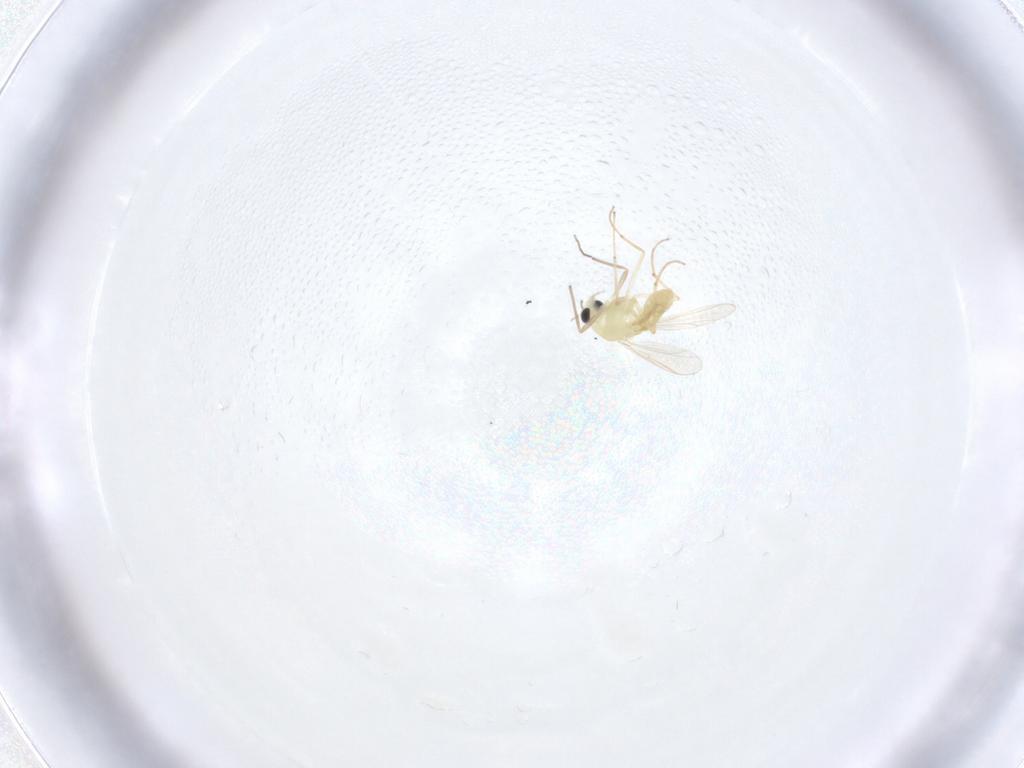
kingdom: Animalia
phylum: Arthropoda
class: Insecta
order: Diptera
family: Chironomidae
